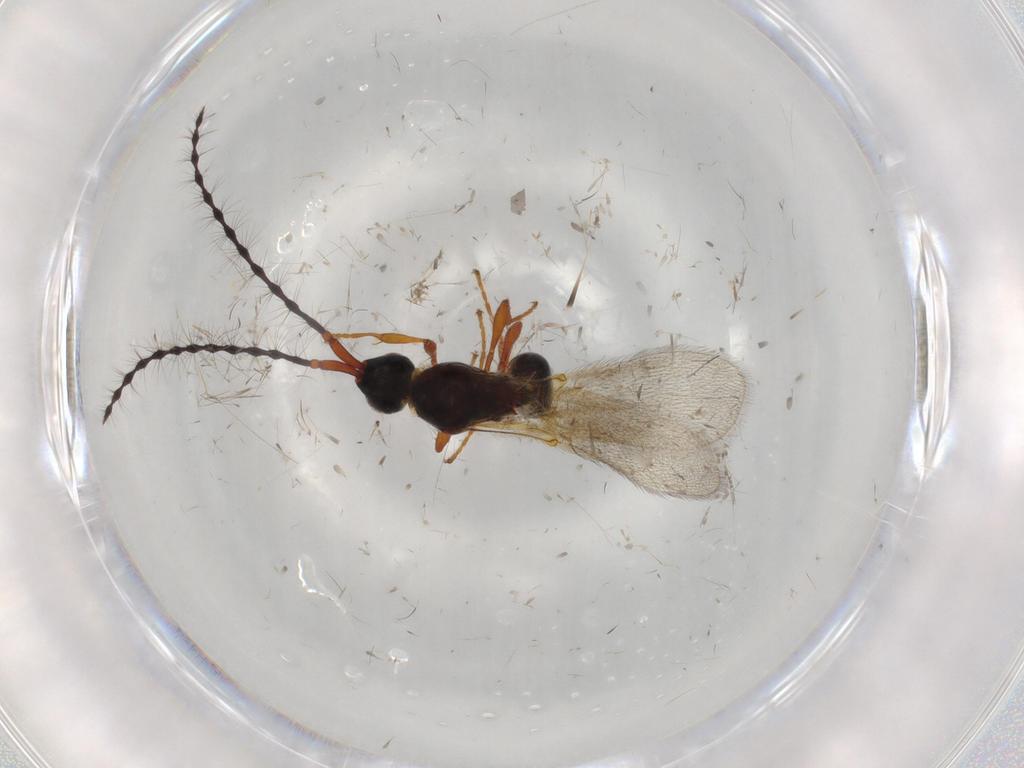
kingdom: Animalia
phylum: Arthropoda
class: Insecta
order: Hymenoptera
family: Diapriidae
